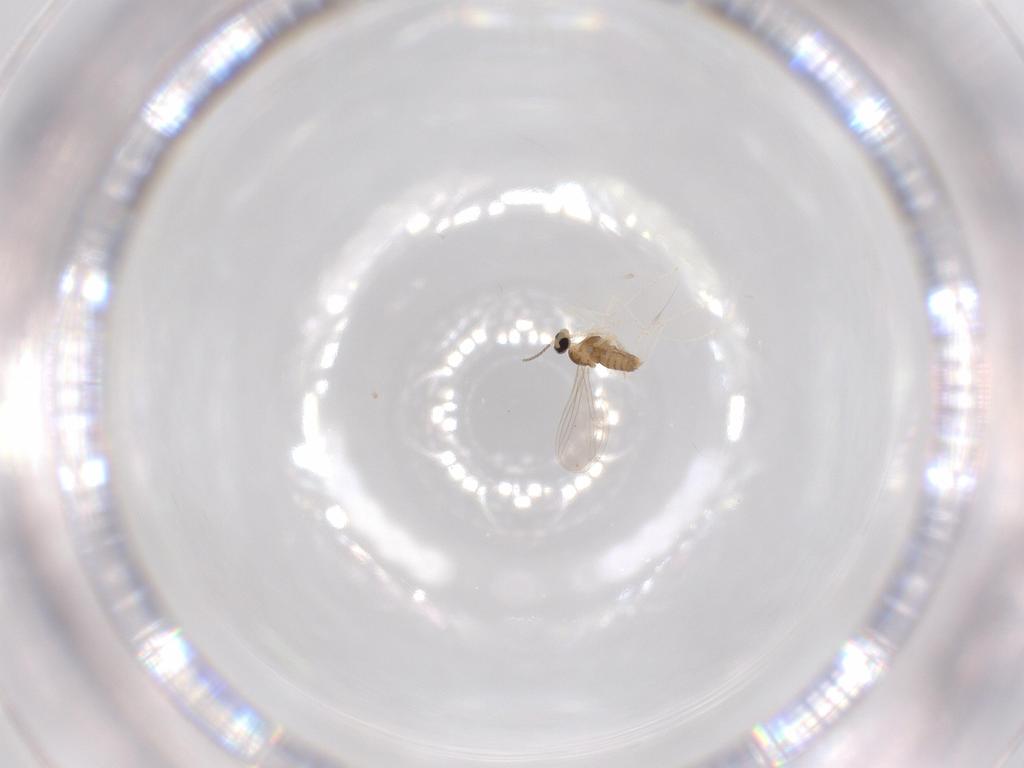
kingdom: Animalia
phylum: Arthropoda
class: Insecta
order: Diptera
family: Cecidomyiidae
